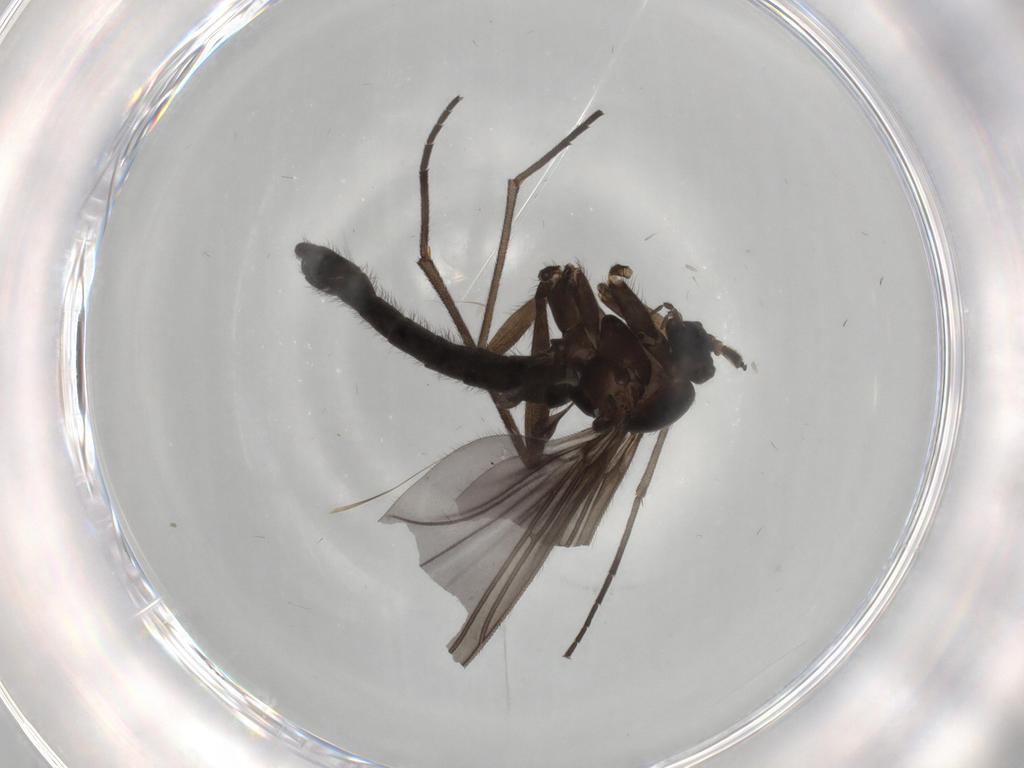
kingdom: Animalia
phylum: Arthropoda
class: Insecta
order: Diptera
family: Sciaridae
